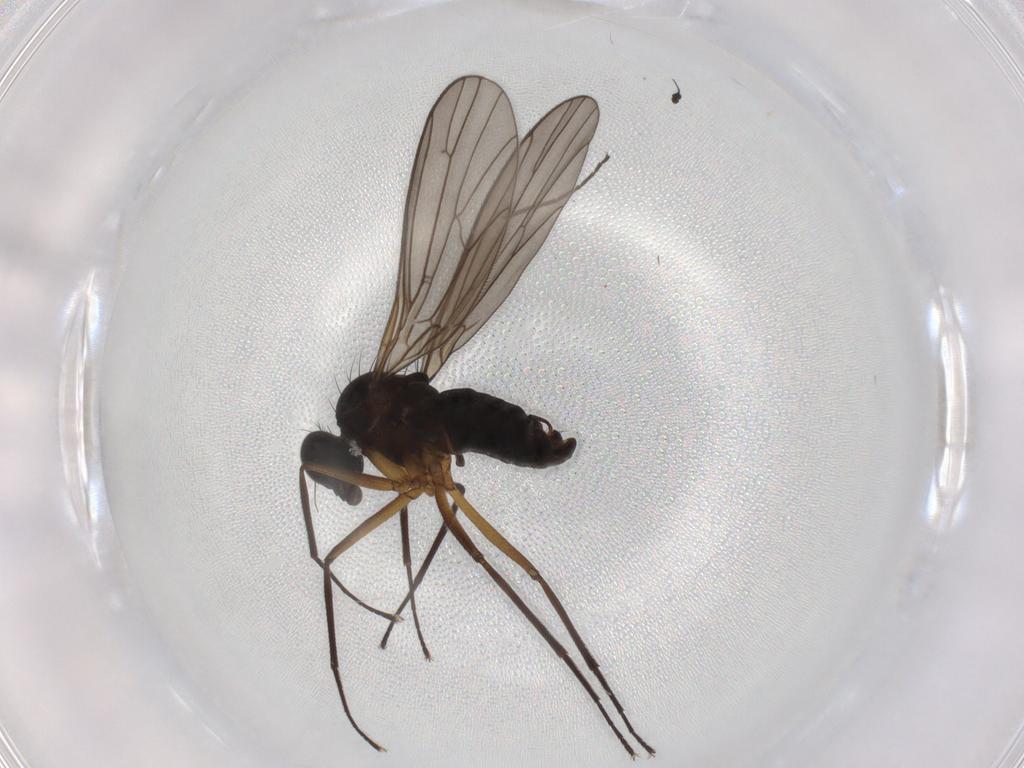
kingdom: Animalia
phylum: Arthropoda
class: Insecta
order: Diptera
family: Empididae
